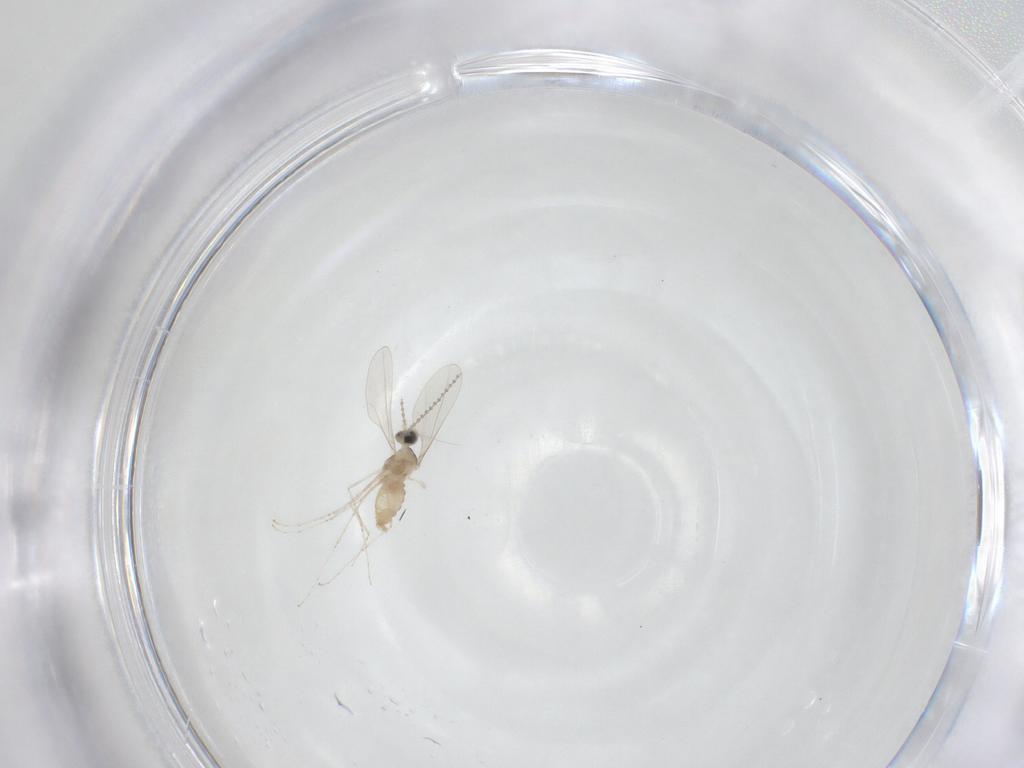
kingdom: Animalia
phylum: Arthropoda
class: Insecta
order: Diptera
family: Cecidomyiidae
